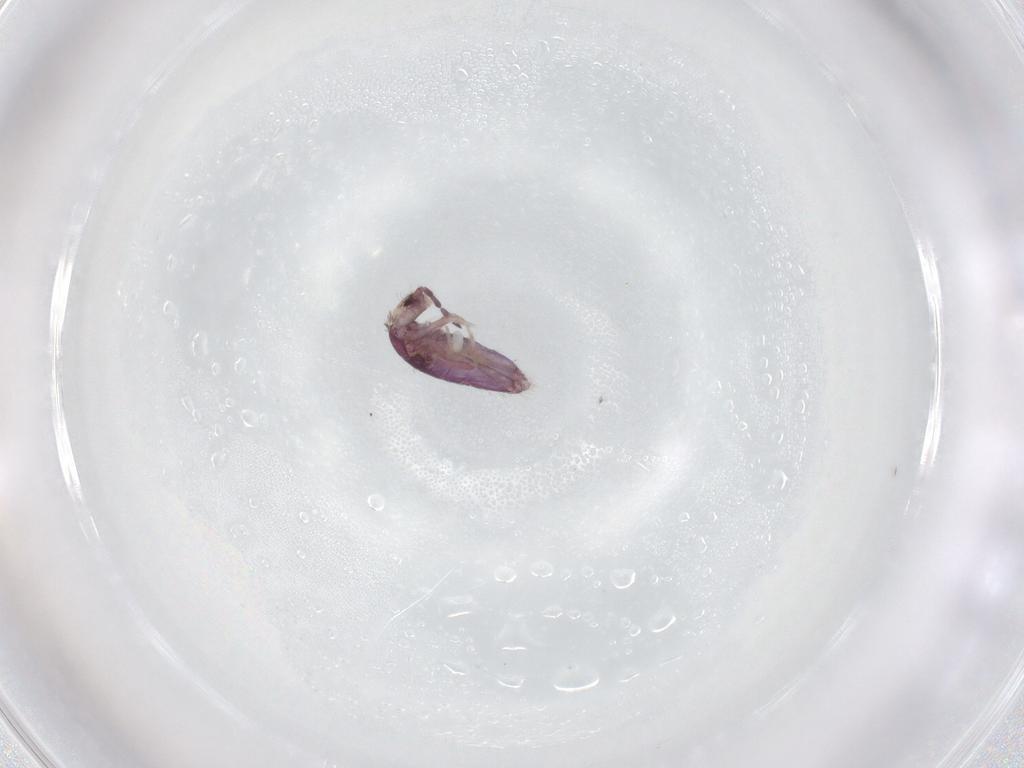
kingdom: Animalia
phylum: Arthropoda
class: Collembola
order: Entomobryomorpha
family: Entomobryidae
